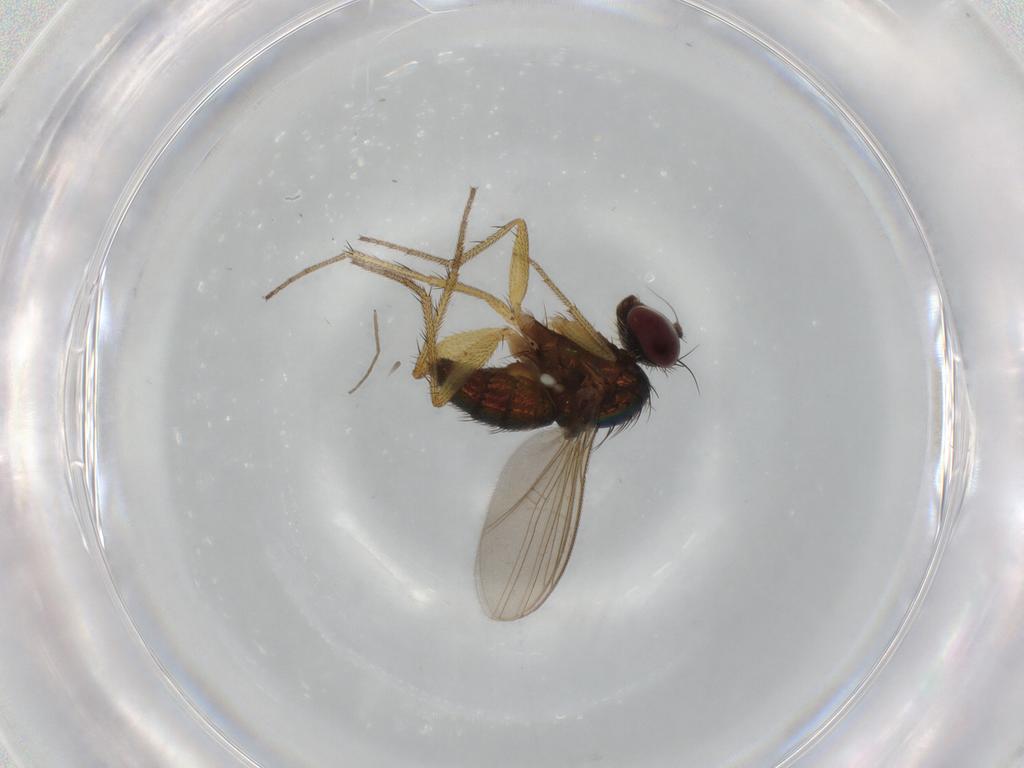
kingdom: Animalia
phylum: Arthropoda
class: Insecta
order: Diptera
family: Dolichopodidae
